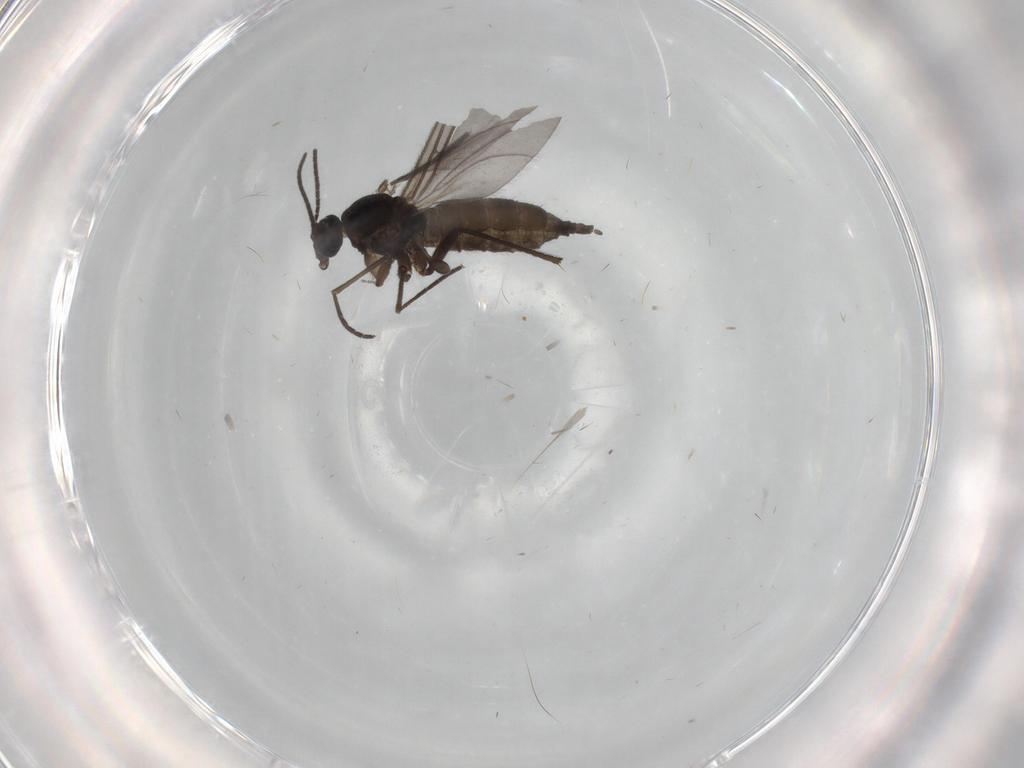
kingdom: Animalia
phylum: Arthropoda
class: Insecta
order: Diptera
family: Sciaridae
